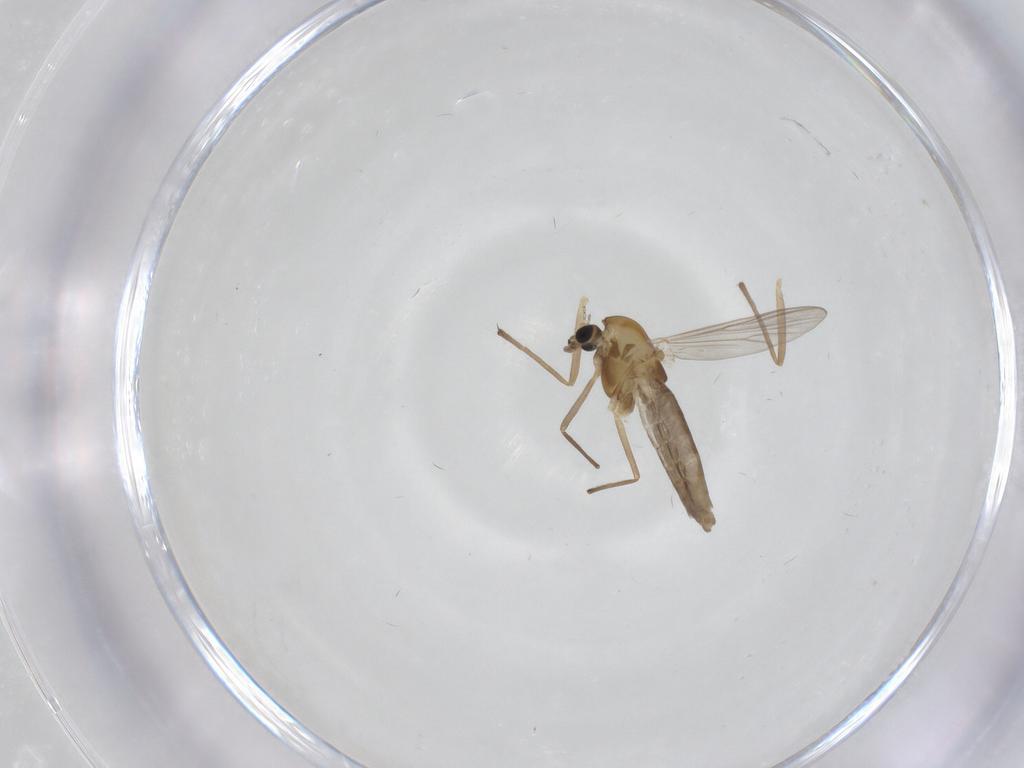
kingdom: Animalia
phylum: Arthropoda
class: Insecta
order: Diptera
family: Chironomidae
